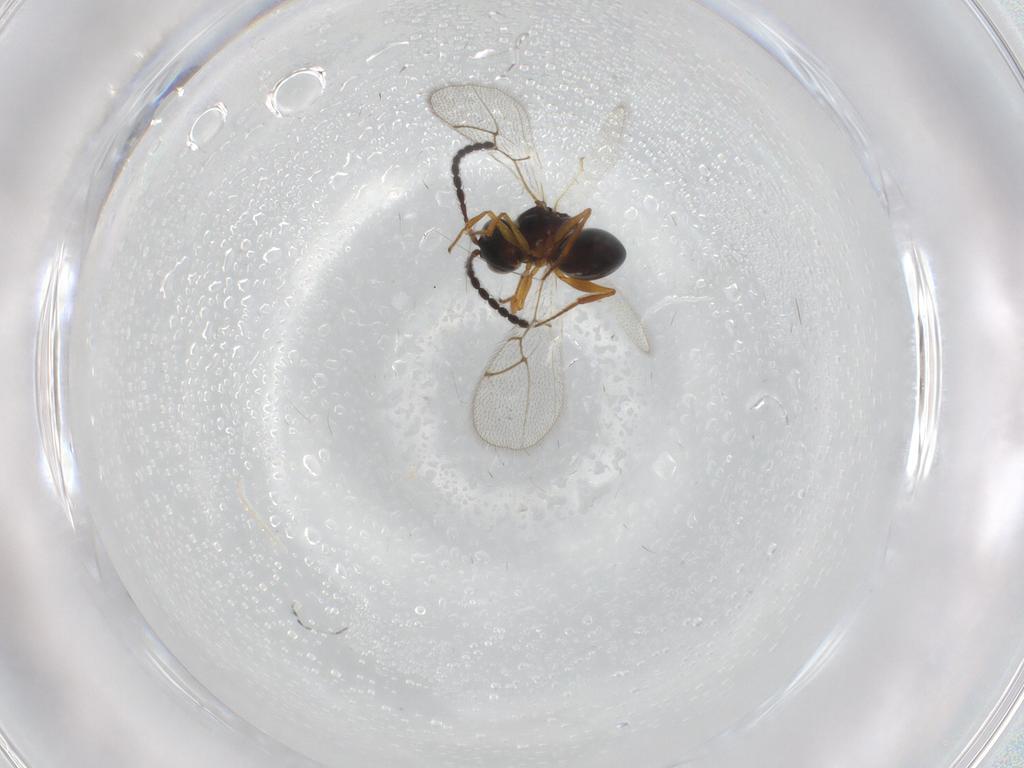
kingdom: Animalia
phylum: Arthropoda
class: Insecta
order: Hymenoptera
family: Figitidae
